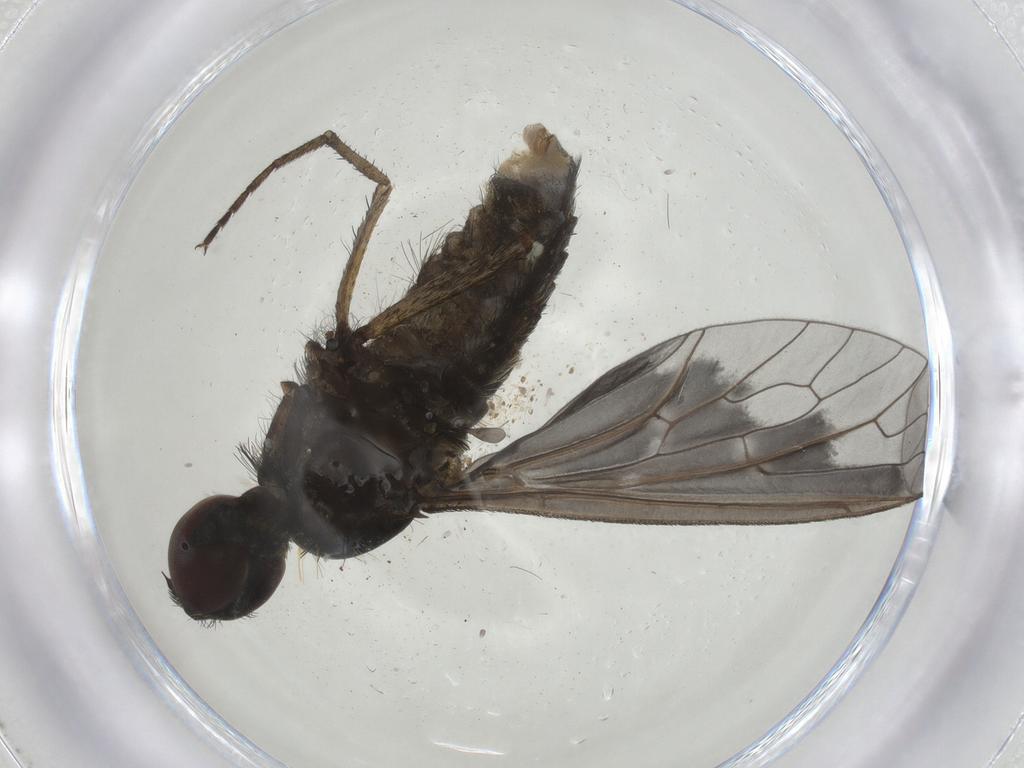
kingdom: Animalia
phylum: Arthropoda
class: Insecta
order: Diptera
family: Bombyliidae
